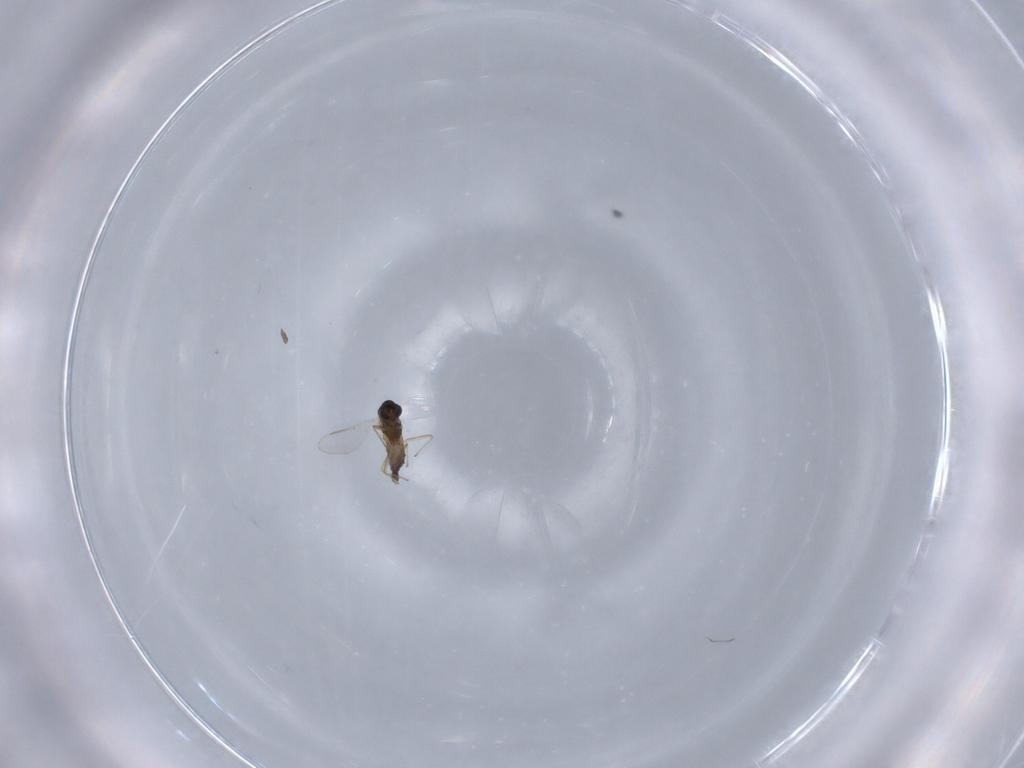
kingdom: Animalia
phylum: Arthropoda
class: Insecta
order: Diptera
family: Chironomidae
